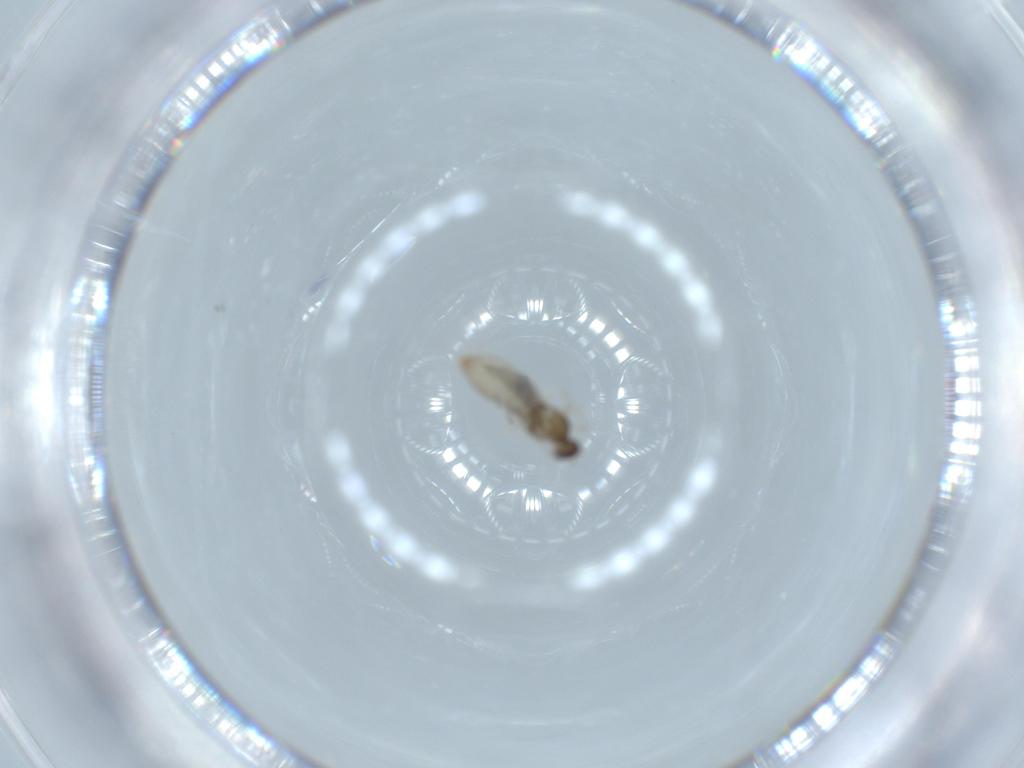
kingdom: Animalia
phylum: Arthropoda
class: Insecta
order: Diptera
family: Cecidomyiidae
